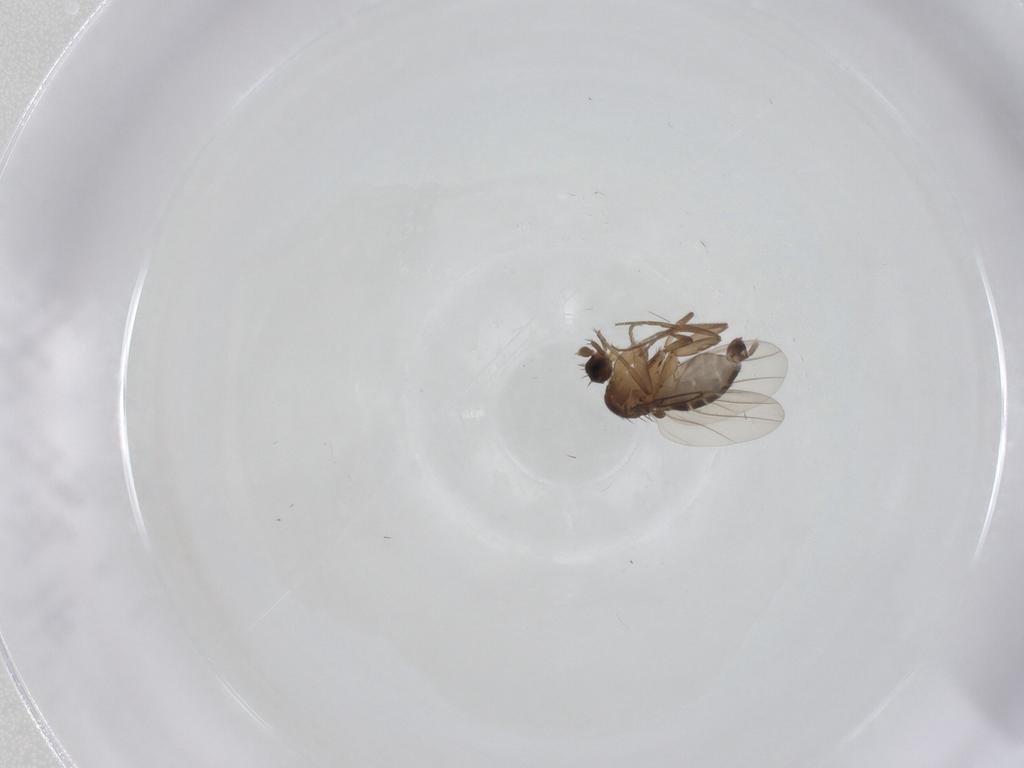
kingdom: Animalia
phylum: Arthropoda
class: Insecta
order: Diptera
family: Phoridae
